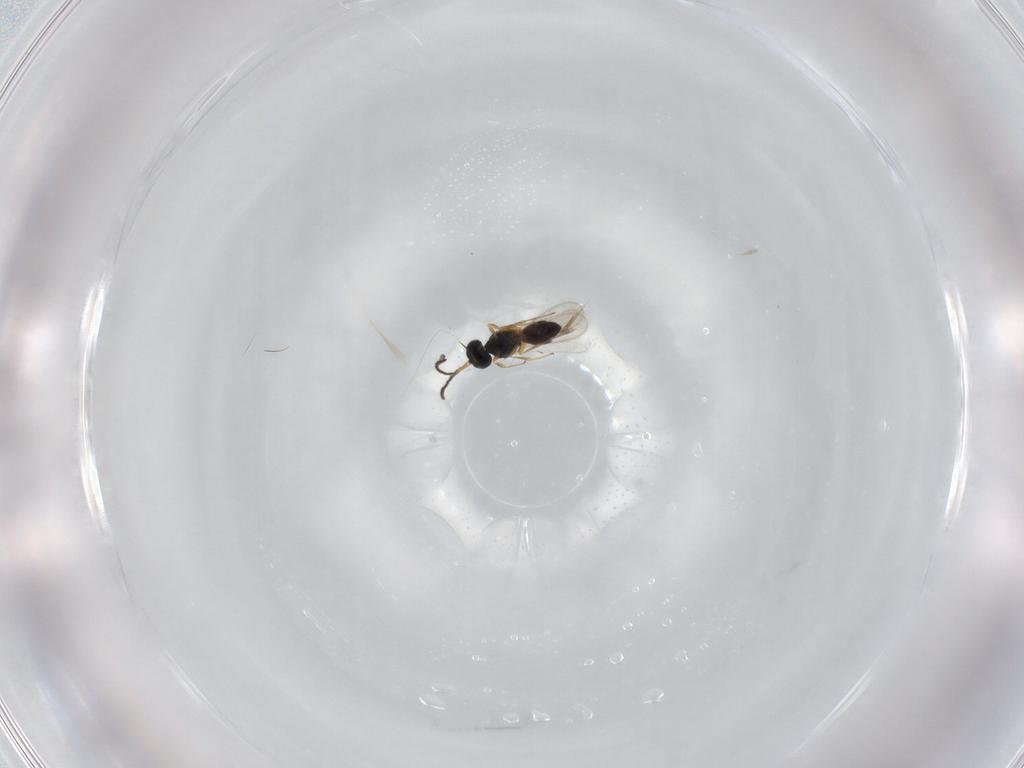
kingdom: Animalia
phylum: Arthropoda
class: Insecta
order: Hymenoptera
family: Scelionidae
